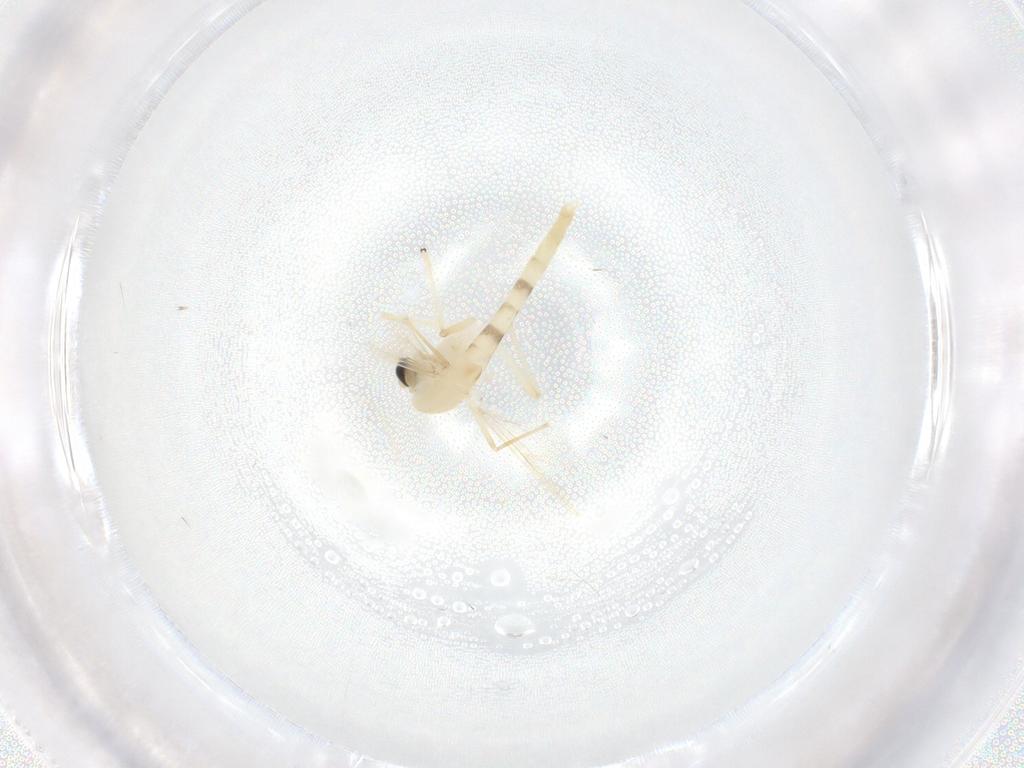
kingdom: Animalia
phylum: Arthropoda
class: Insecta
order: Diptera
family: Chironomidae
